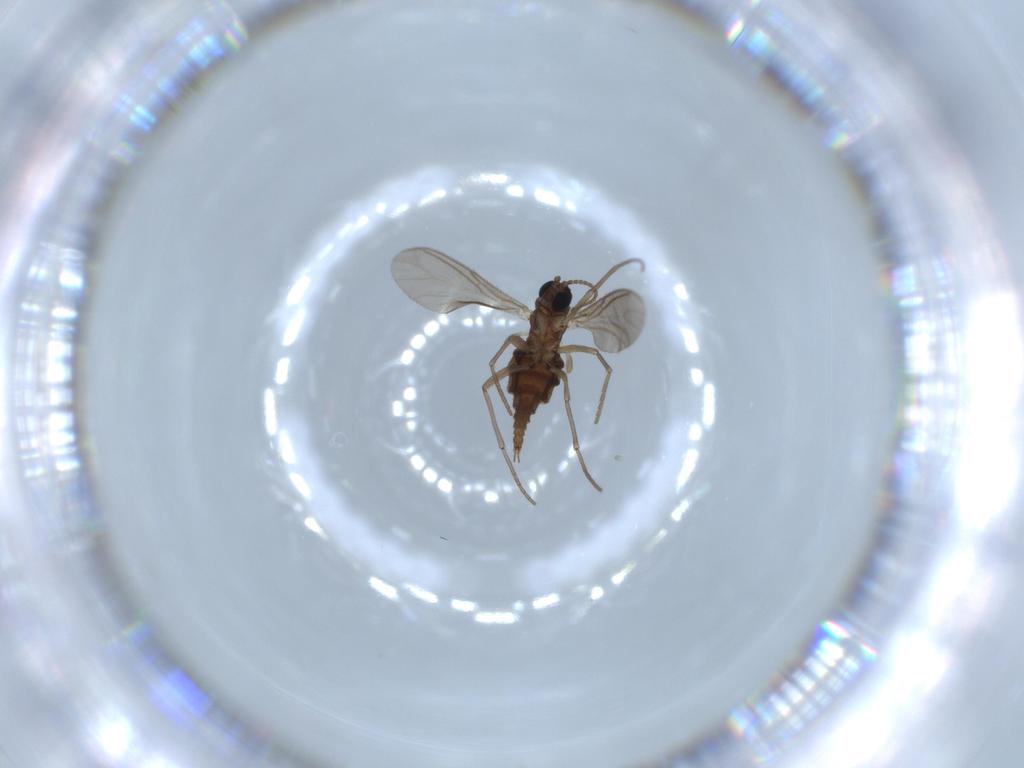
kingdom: Animalia
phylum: Arthropoda
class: Insecta
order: Diptera
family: Sciaridae
